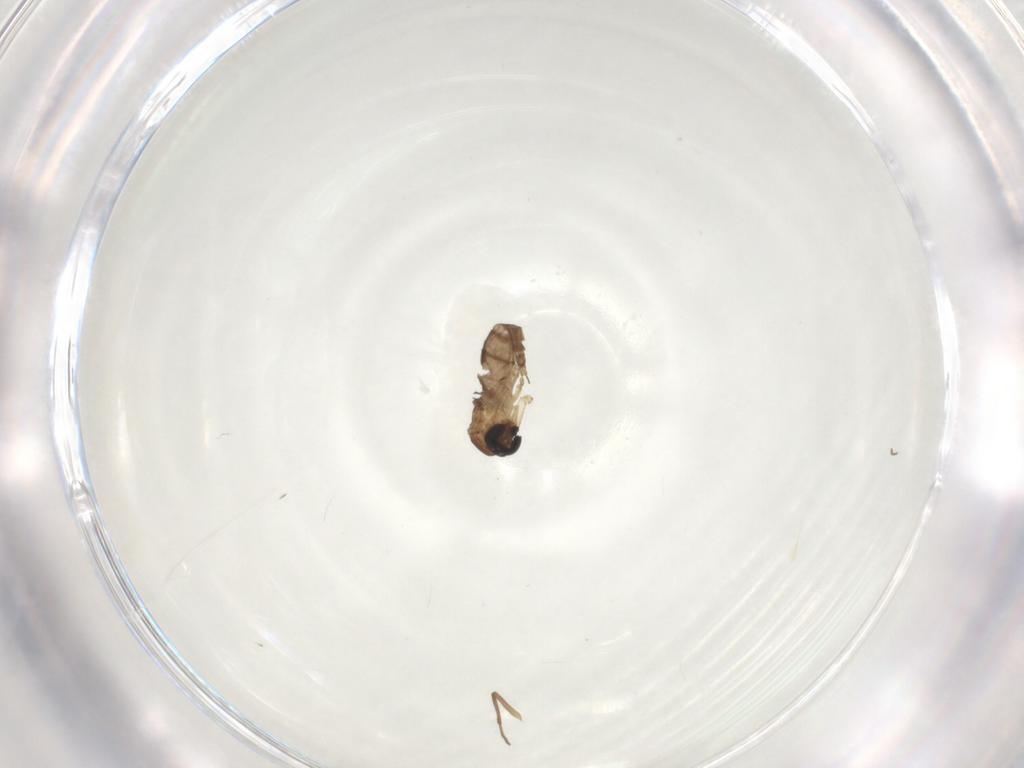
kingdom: Animalia
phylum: Arthropoda
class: Insecta
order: Diptera
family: Sciaridae
